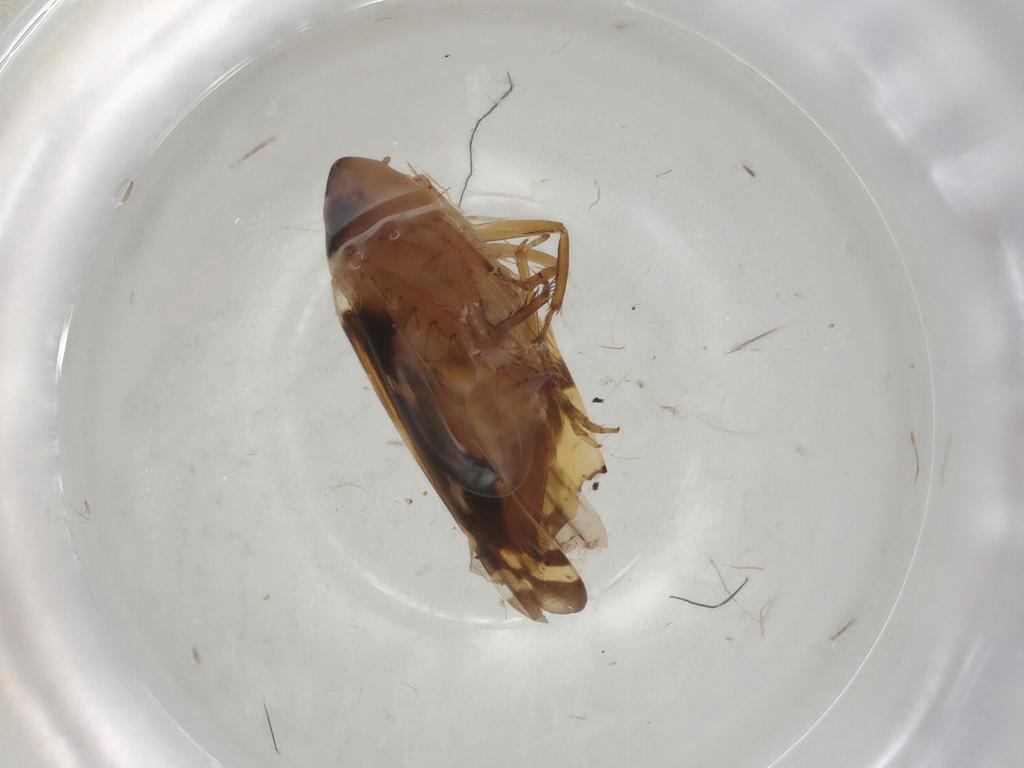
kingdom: Animalia
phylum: Arthropoda
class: Insecta
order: Hemiptera
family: Cicadellidae
